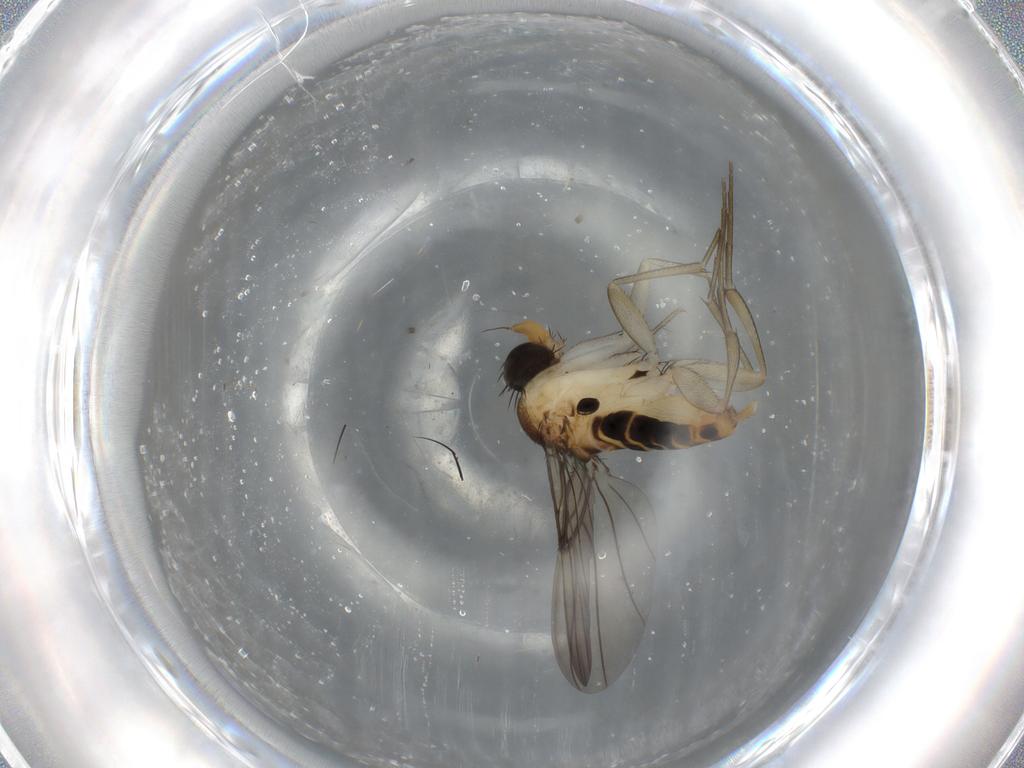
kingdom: Animalia
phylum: Arthropoda
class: Insecta
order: Diptera
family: Phoridae
